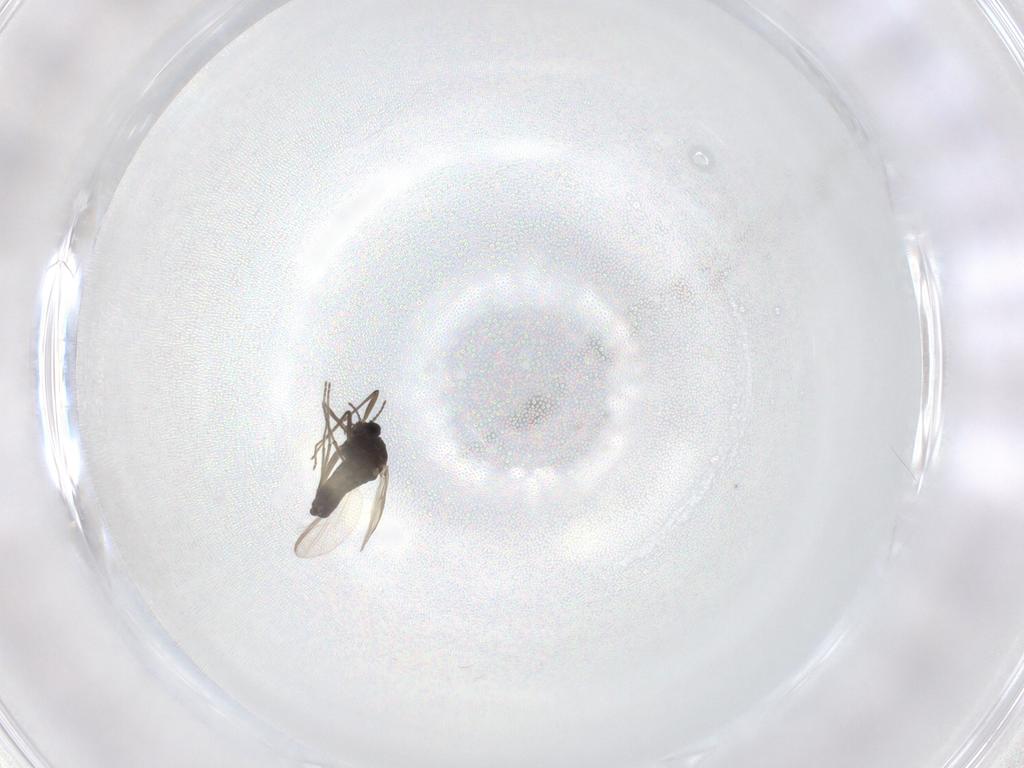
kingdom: Animalia
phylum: Arthropoda
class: Insecta
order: Diptera
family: Chironomidae
